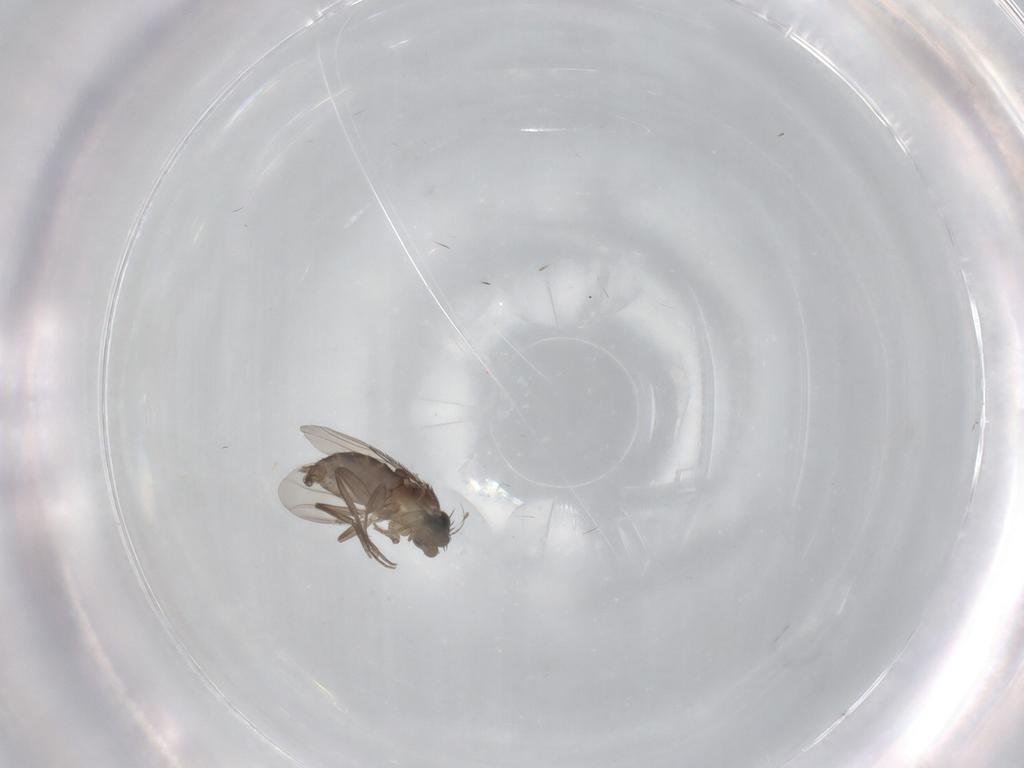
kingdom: Animalia
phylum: Arthropoda
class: Insecta
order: Diptera
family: Phoridae
